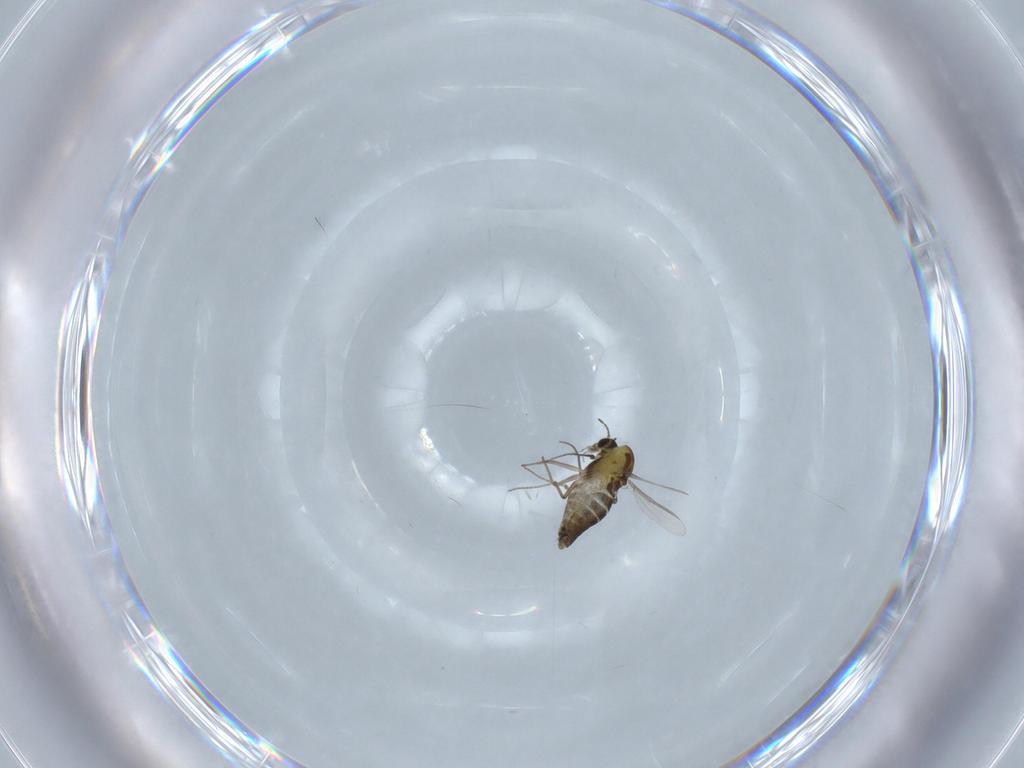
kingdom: Animalia
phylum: Arthropoda
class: Insecta
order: Diptera
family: Chironomidae
